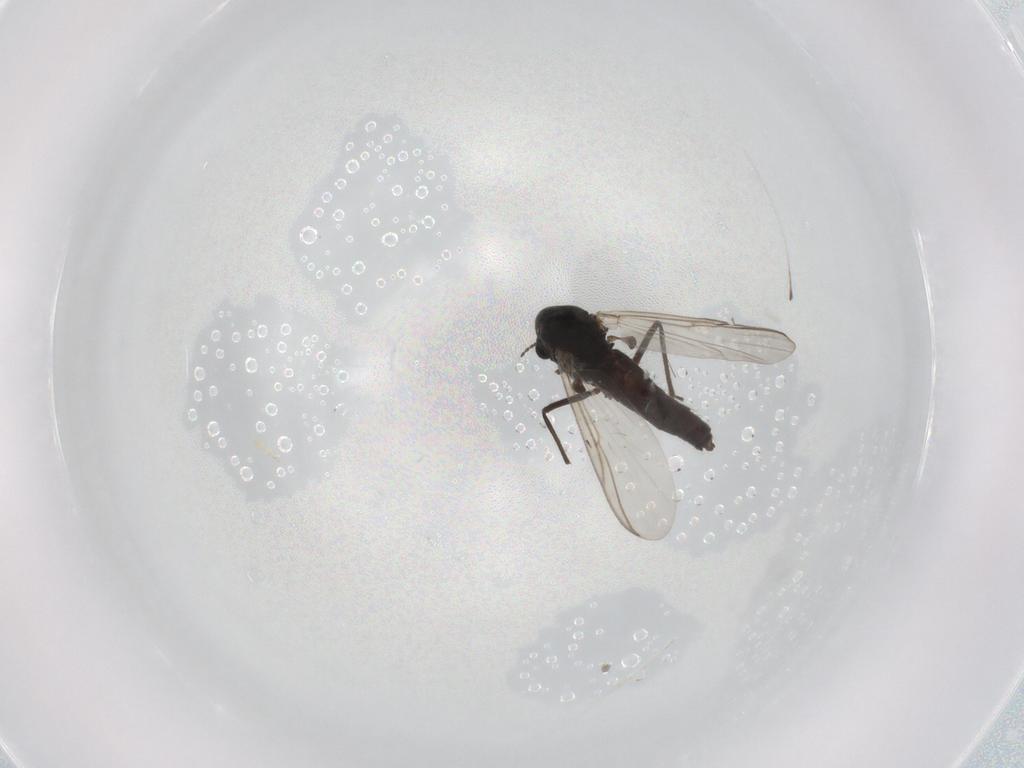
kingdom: Animalia
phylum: Arthropoda
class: Insecta
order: Diptera
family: Chironomidae
